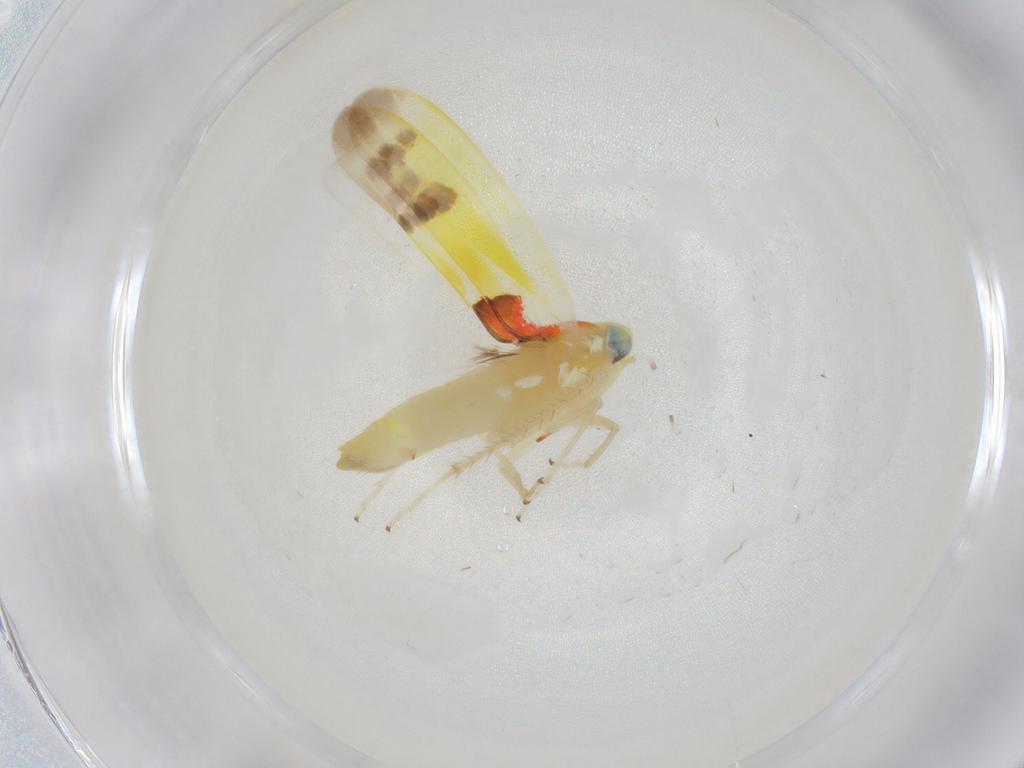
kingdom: Animalia
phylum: Arthropoda
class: Insecta
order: Hemiptera
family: Cicadellidae
